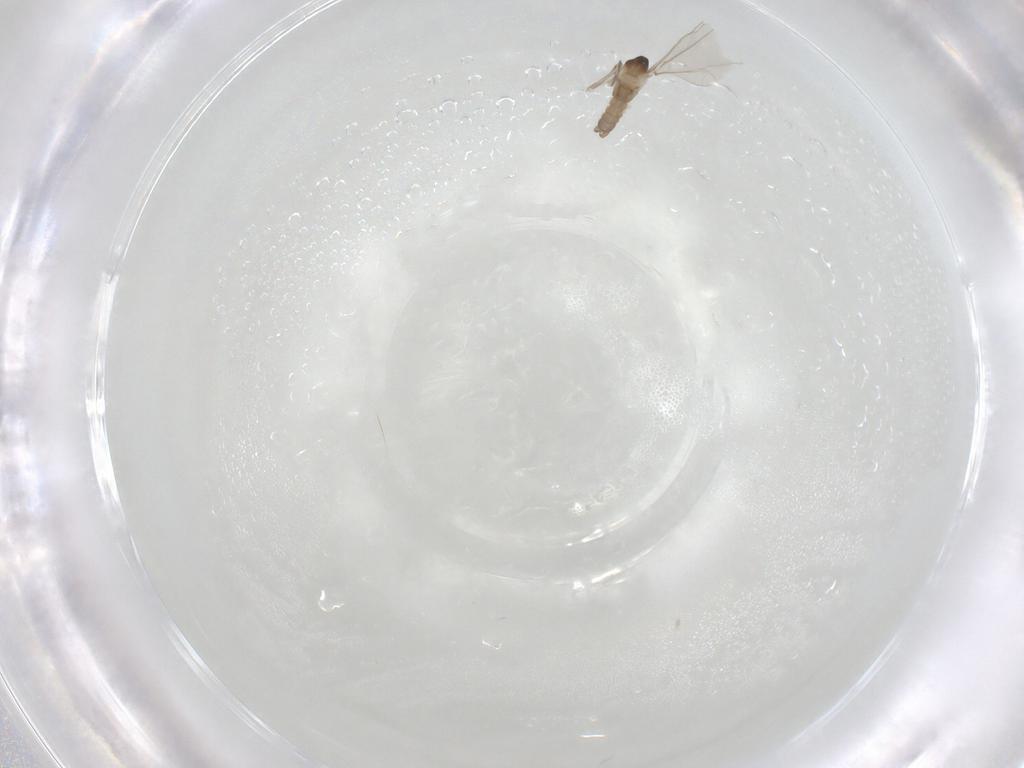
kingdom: Animalia
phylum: Arthropoda
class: Insecta
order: Diptera
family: Cecidomyiidae
